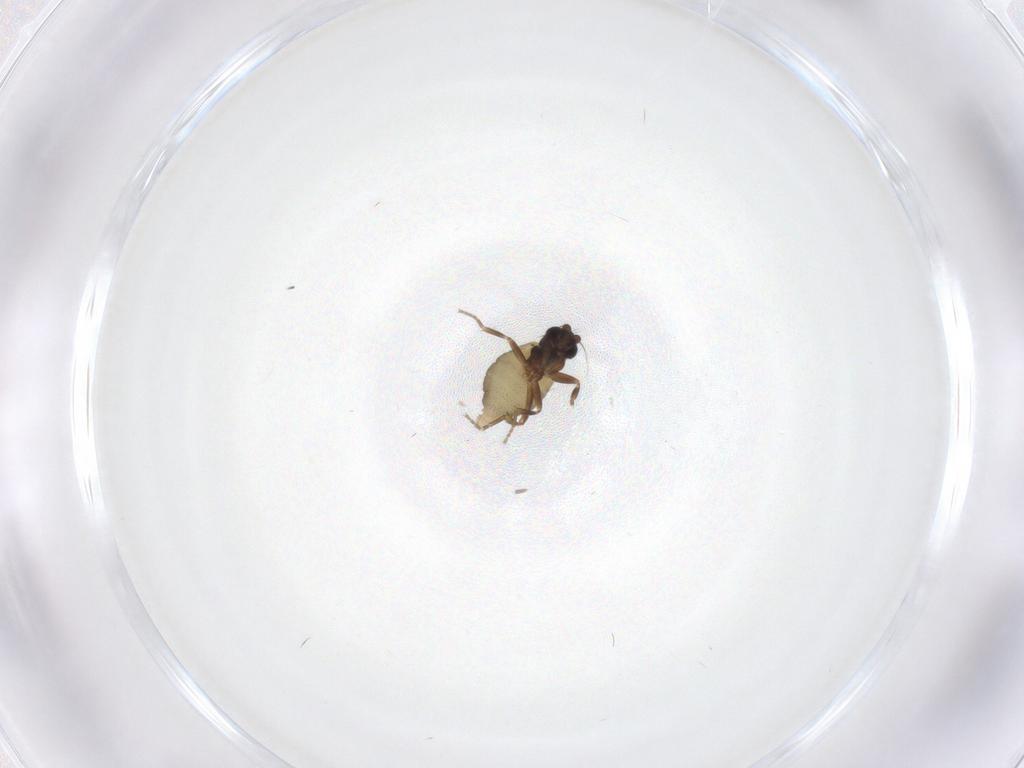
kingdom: Animalia
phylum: Arthropoda
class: Insecta
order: Diptera
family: Phoridae
